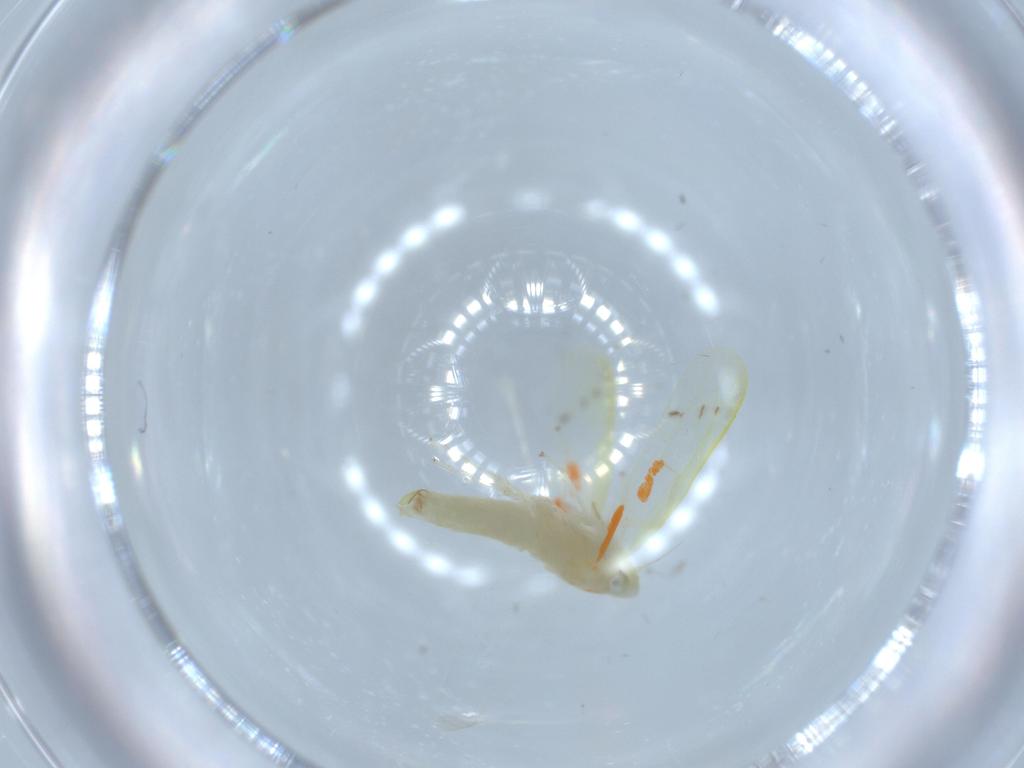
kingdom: Animalia
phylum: Arthropoda
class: Insecta
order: Hemiptera
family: Cicadellidae
